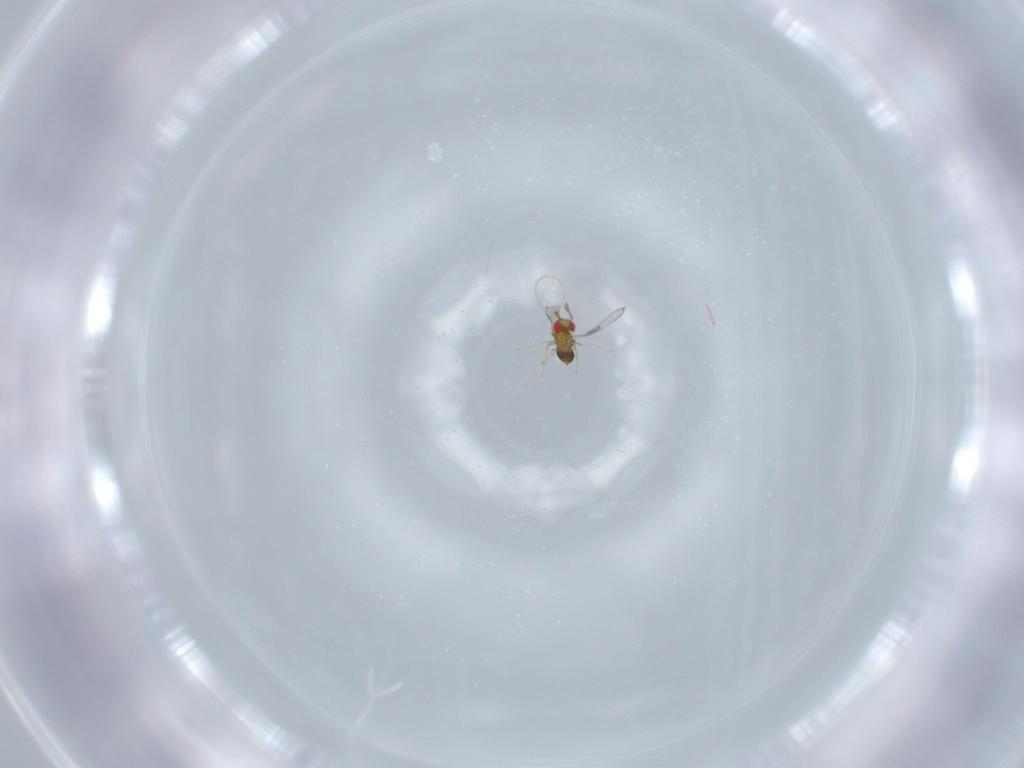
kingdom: Animalia
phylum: Arthropoda
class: Insecta
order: Hymenoptera
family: Trichogrammatidae
